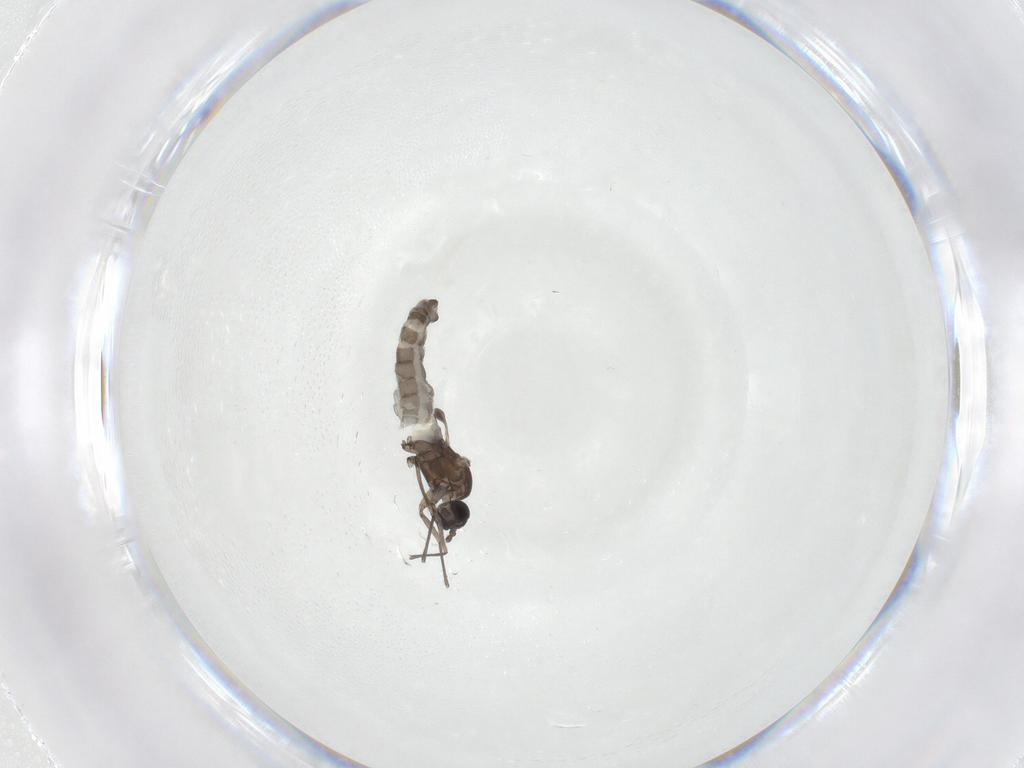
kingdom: Animalia
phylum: Arthropoda
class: Insecta
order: Diptera
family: Sciaridae
